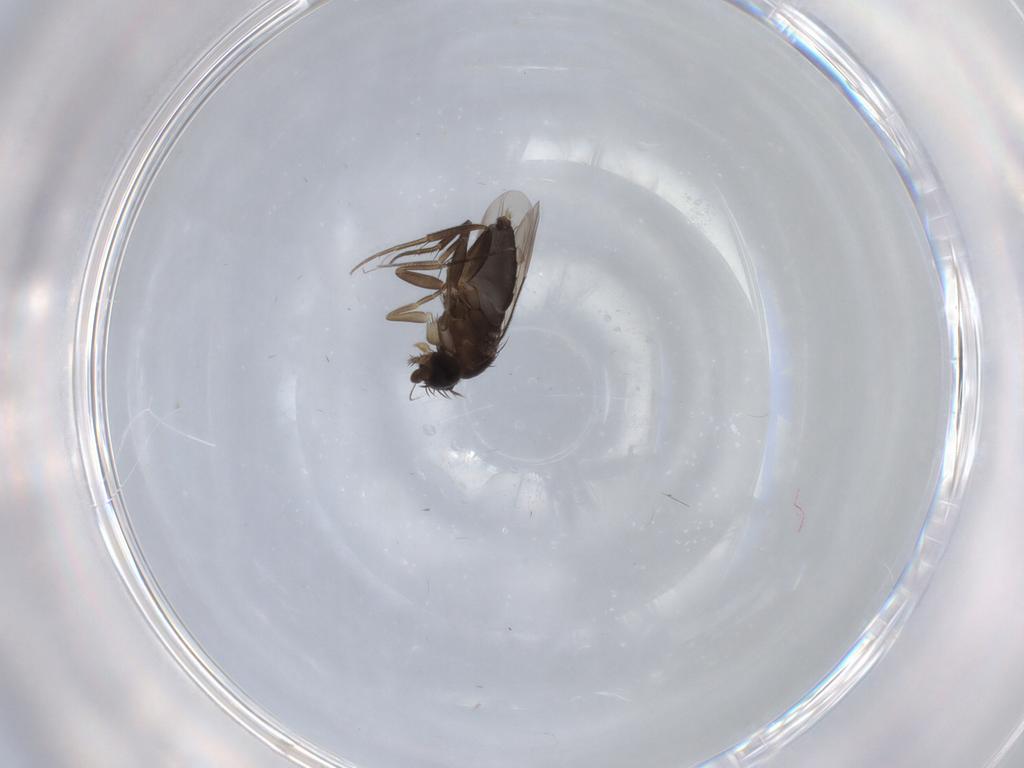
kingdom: Animalia
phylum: Arthropoda
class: Insecta
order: Diptera
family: Phoridae
